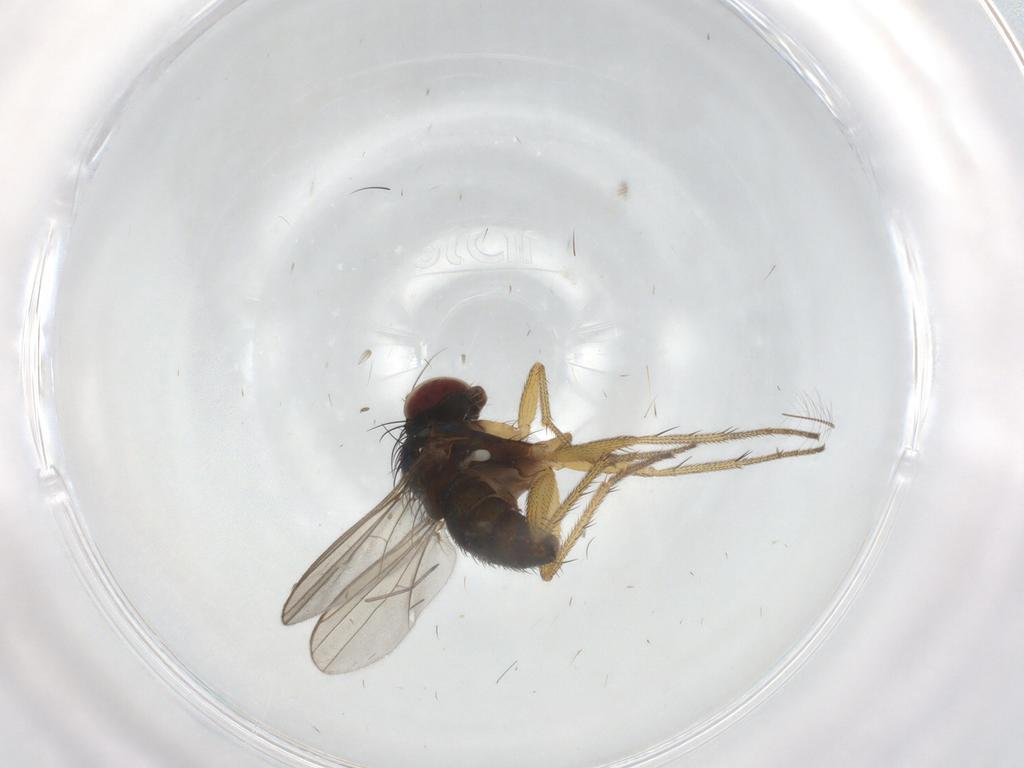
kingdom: Animalia
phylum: Arthropoda
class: Insecta
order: Diptera
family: Dolichopodidae
